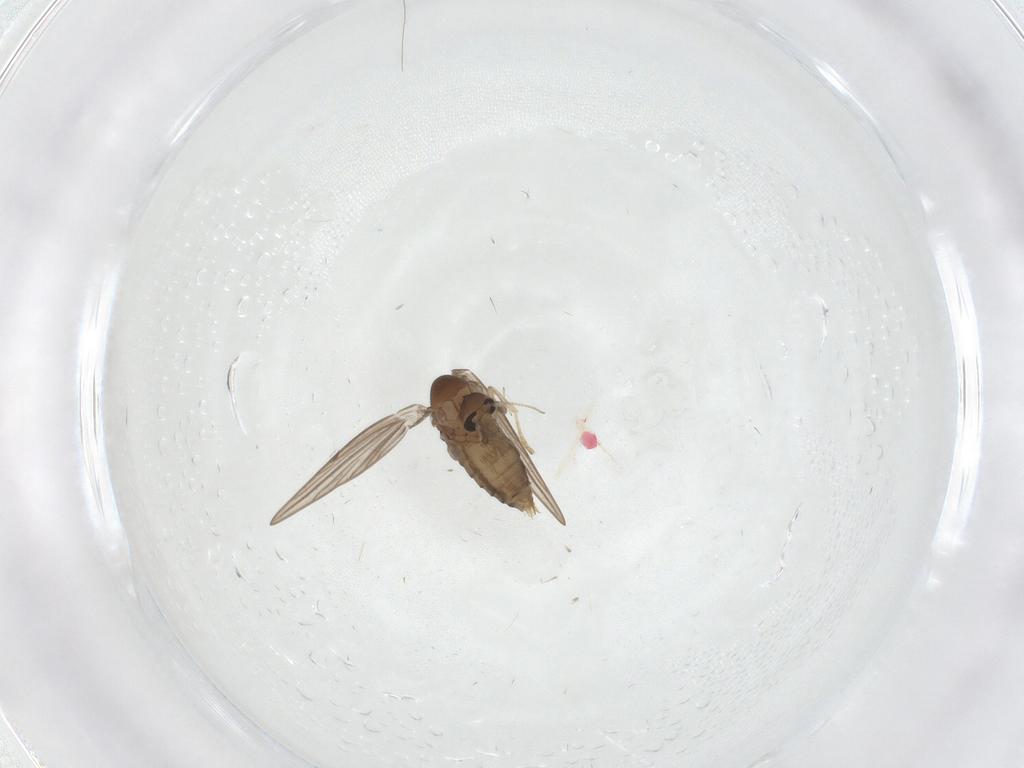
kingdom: Animalia
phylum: Arthropoda
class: Insecta
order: Diptera
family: Psychodidae
